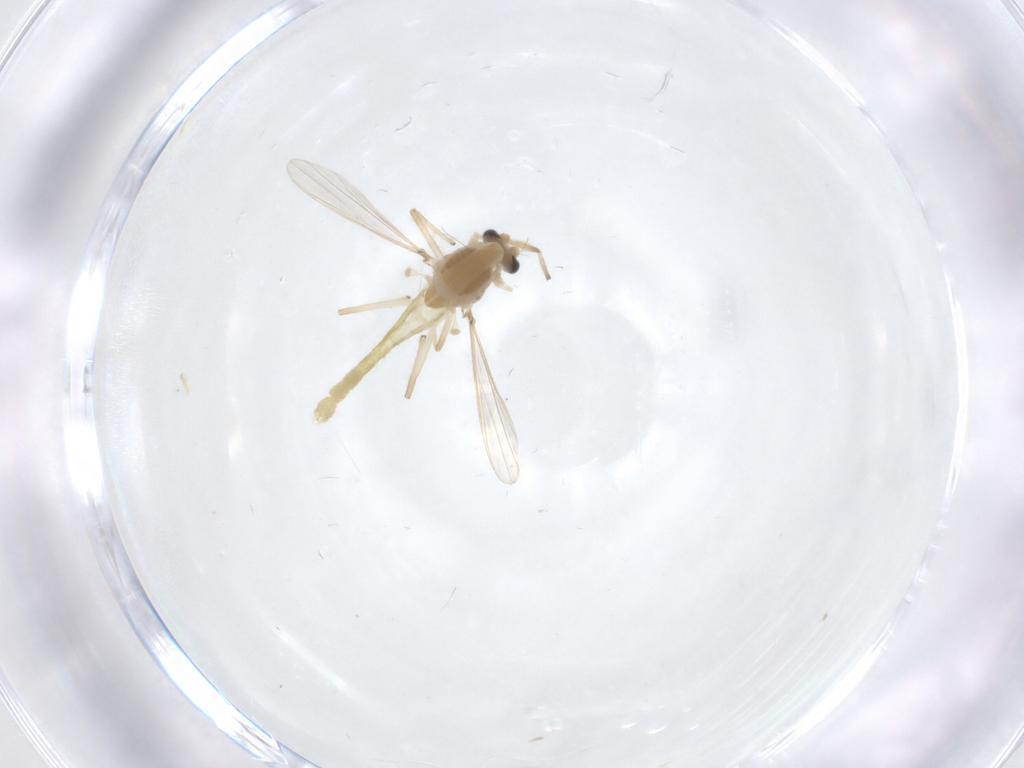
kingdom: Animalia
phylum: Arthropoda
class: Insecta
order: Diptera
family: Chironomidae
